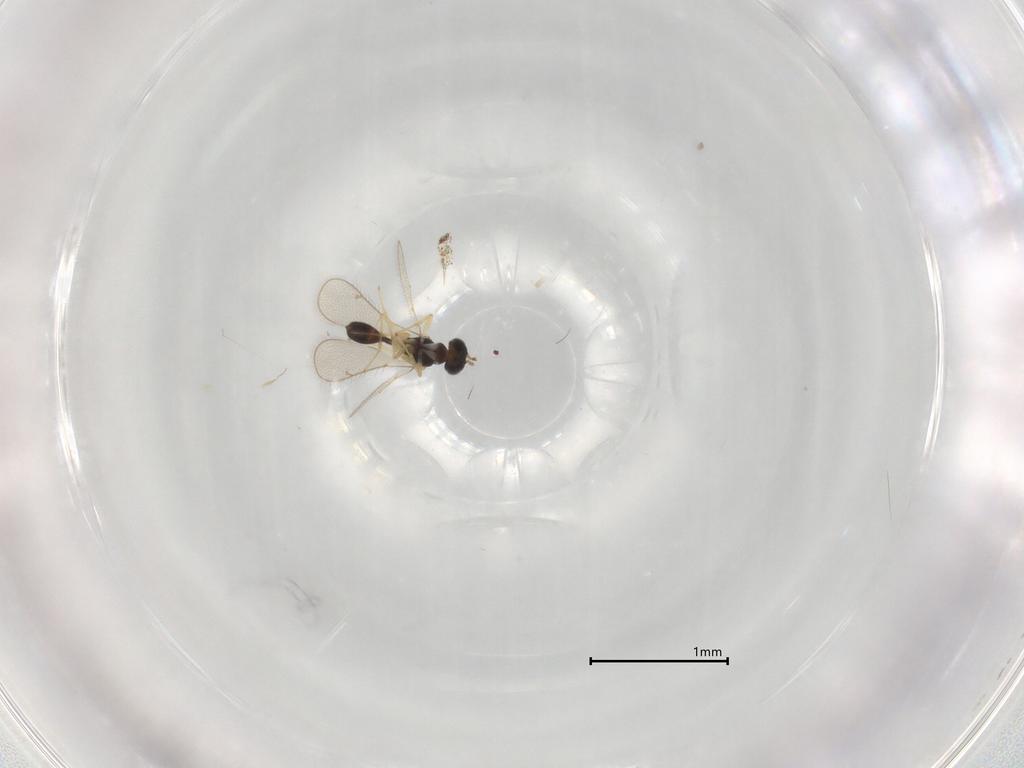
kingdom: Animalia
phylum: Arthropoda
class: Insecta
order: Hymenoptera
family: Diparidae
